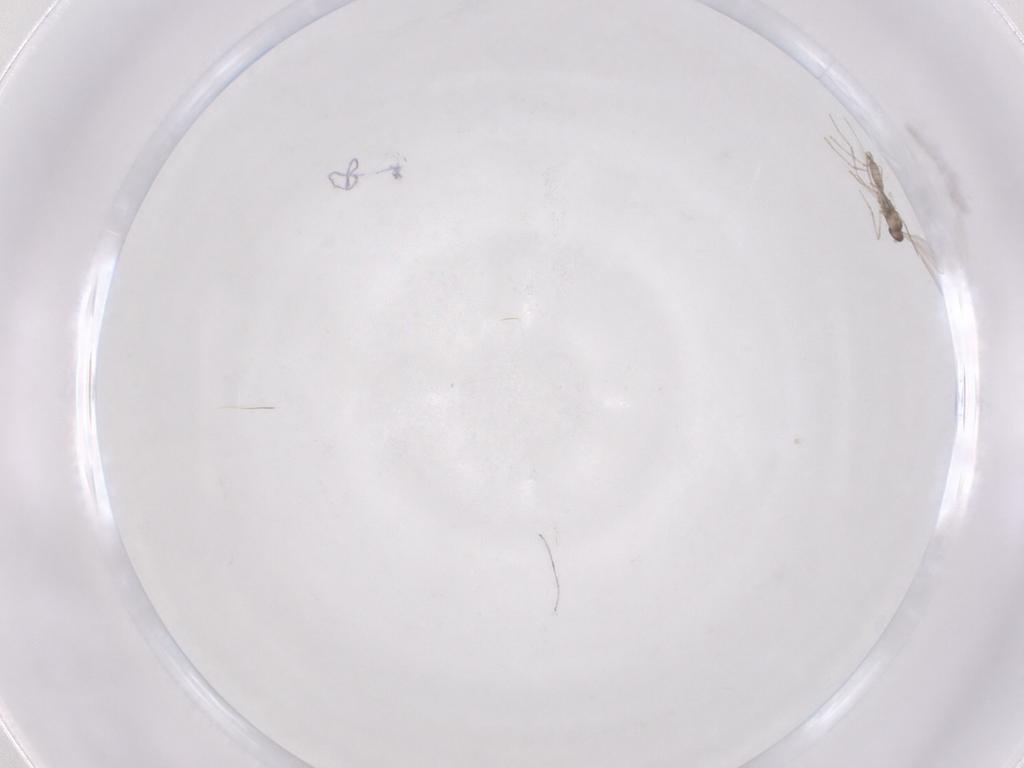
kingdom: Animalia
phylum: Arthropoda
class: Insecta
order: Diptera
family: Cecidomyiidae
